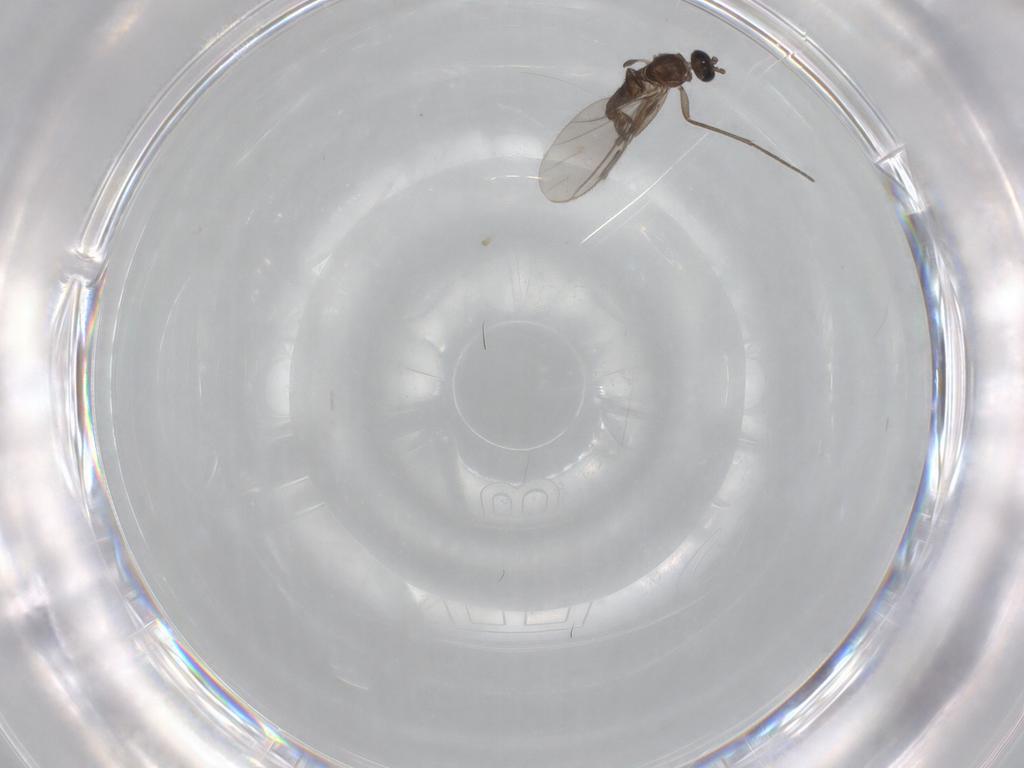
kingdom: Animalia
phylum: Arthropoda
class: Insecta
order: Diptera
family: Sciaridae
